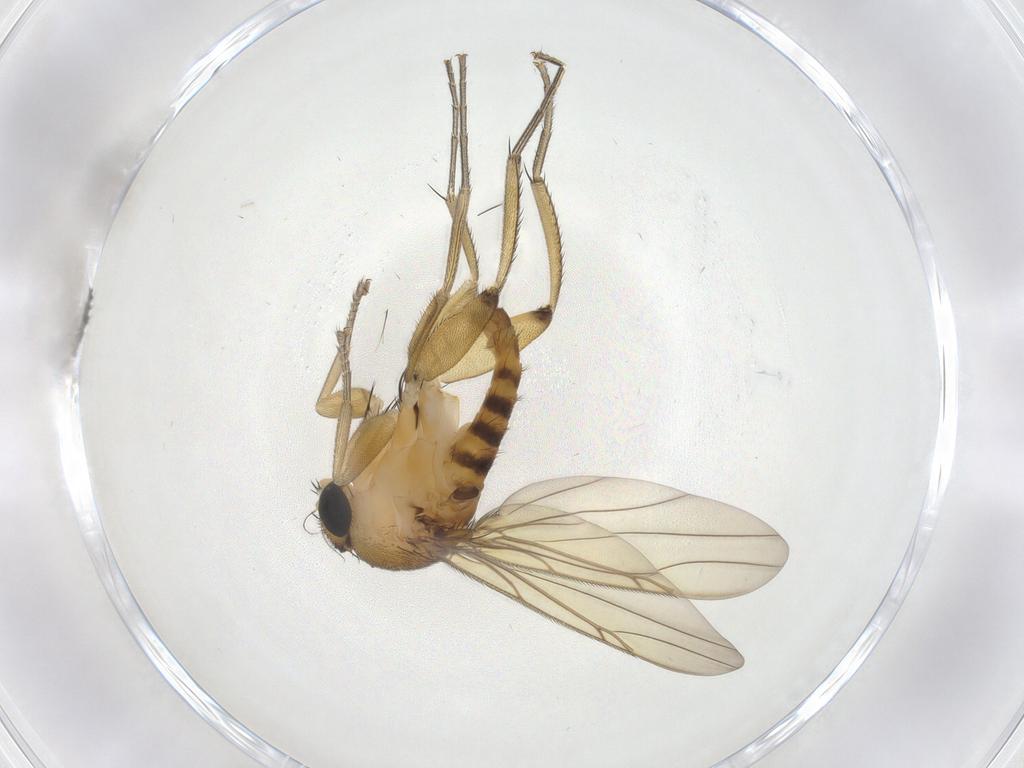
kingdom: Animalia
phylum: Arthropoda
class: Insecta
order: Diptera
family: Phoridae
